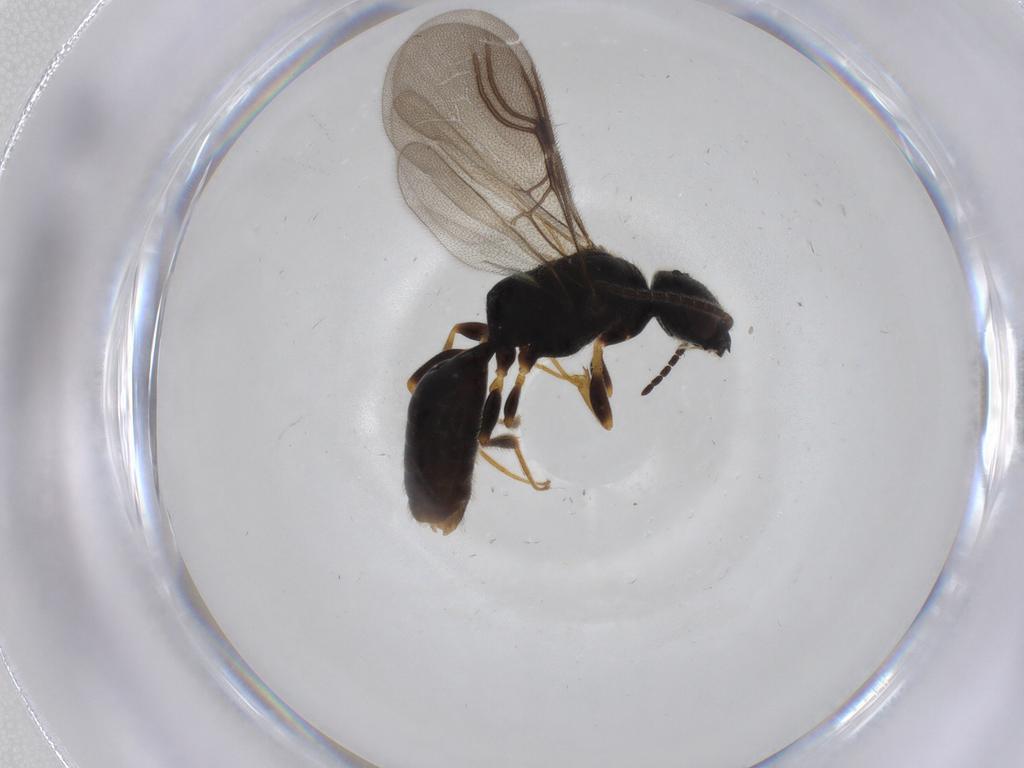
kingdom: Animalia
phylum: Arthropoda
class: Insecta
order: Hymenoptera
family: Bethylidae
